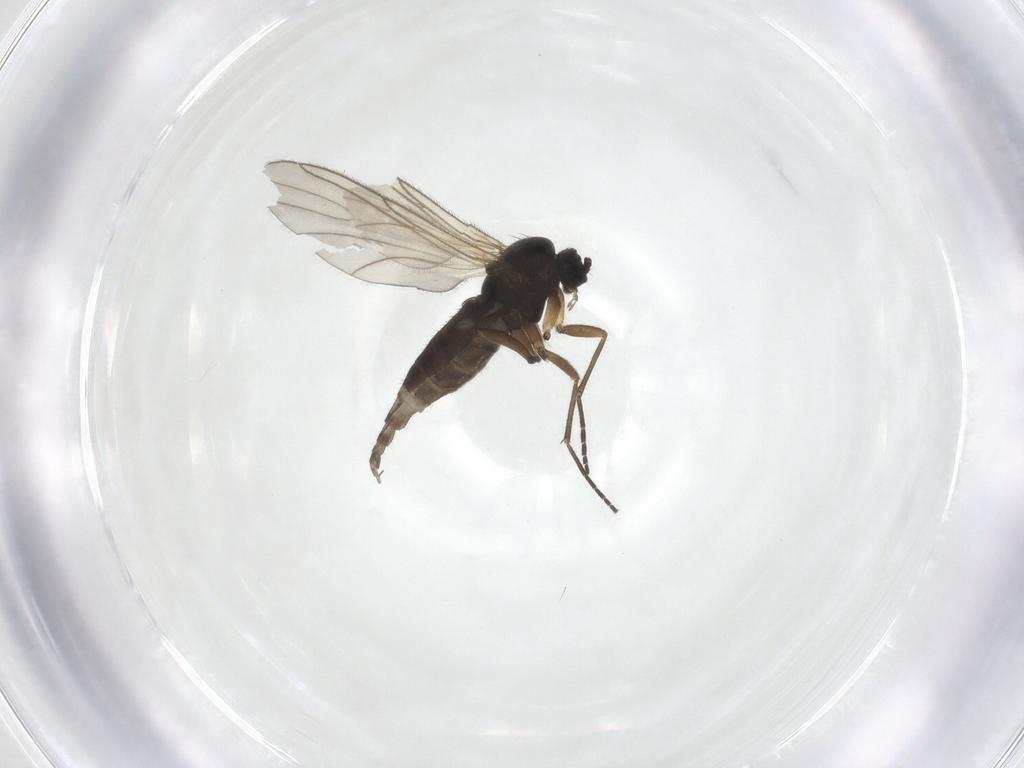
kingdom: Animalia
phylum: Arthropoda
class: Insecta
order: Diptera
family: Sciaridae
